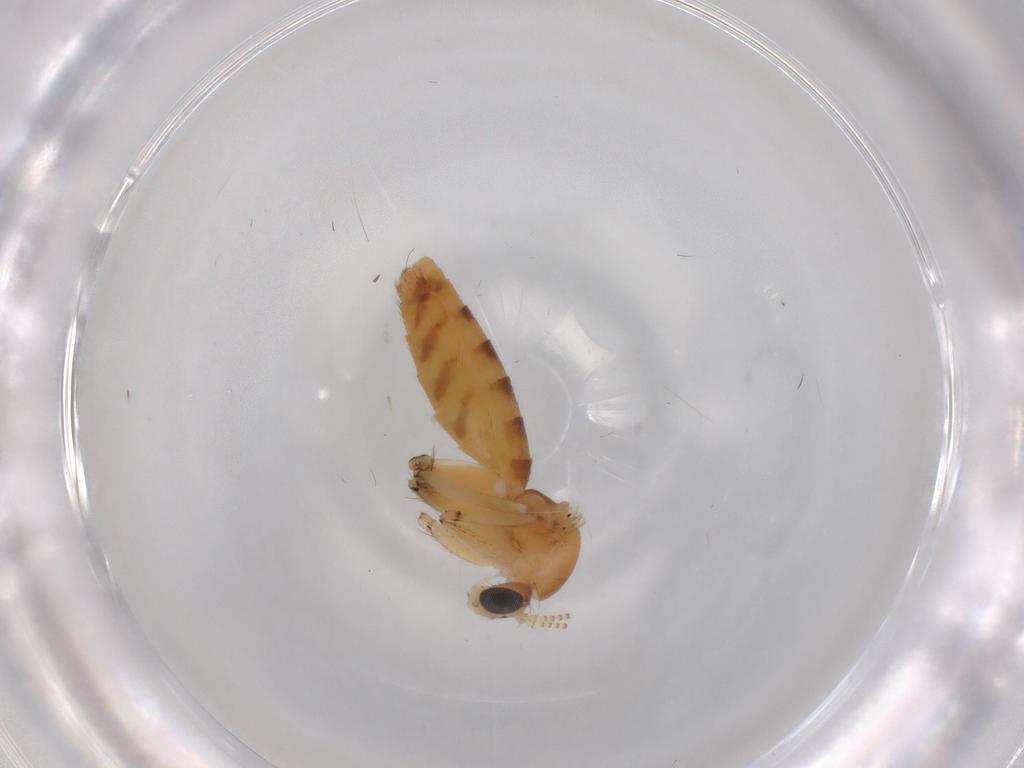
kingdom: Animalia
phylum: Arthropoda
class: Insecta
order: Diptera
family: Mycetophilidae
